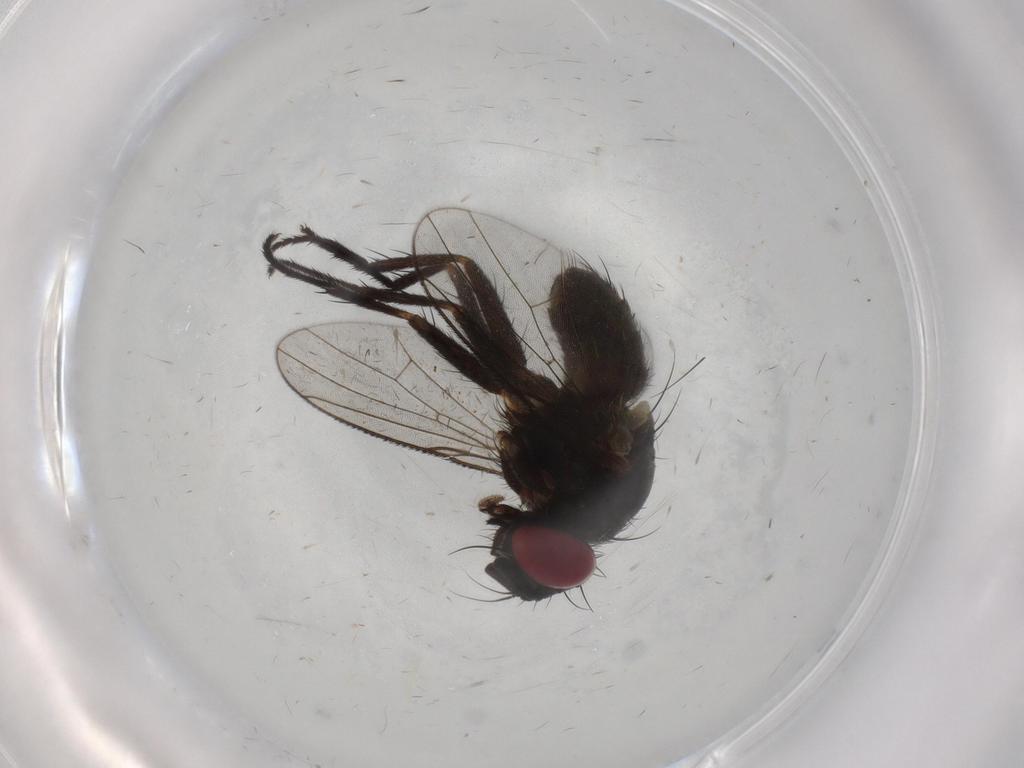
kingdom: Animalia
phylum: Arthropoda
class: Insecta
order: Diptera
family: Muscidae
